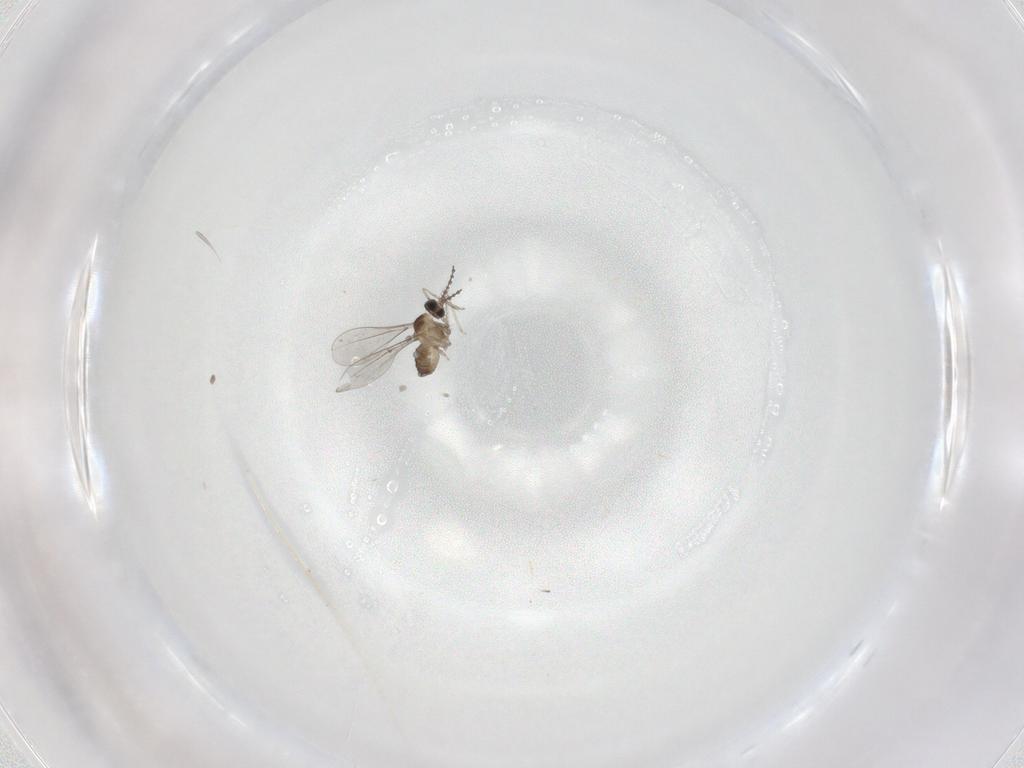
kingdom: Animalia
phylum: Arthropoda
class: Insecta
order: Diptera
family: Cecidomyiidae
